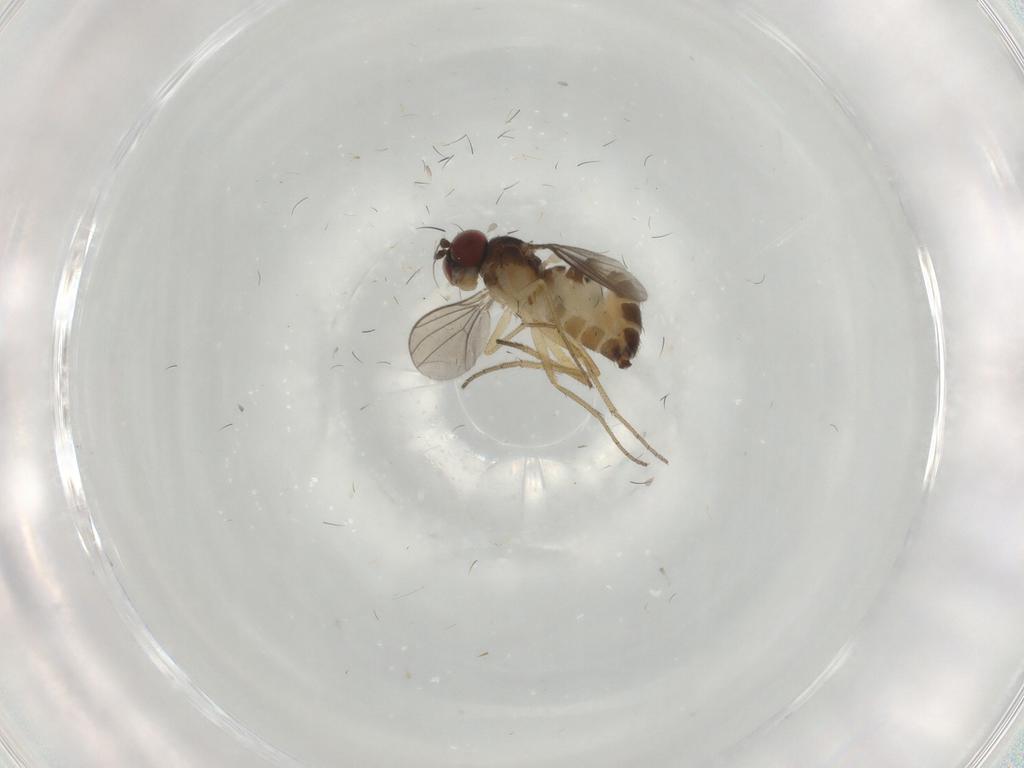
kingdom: Animalia
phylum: Arthropoda
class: Insecta
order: Diptera
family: Dolichopodidae
